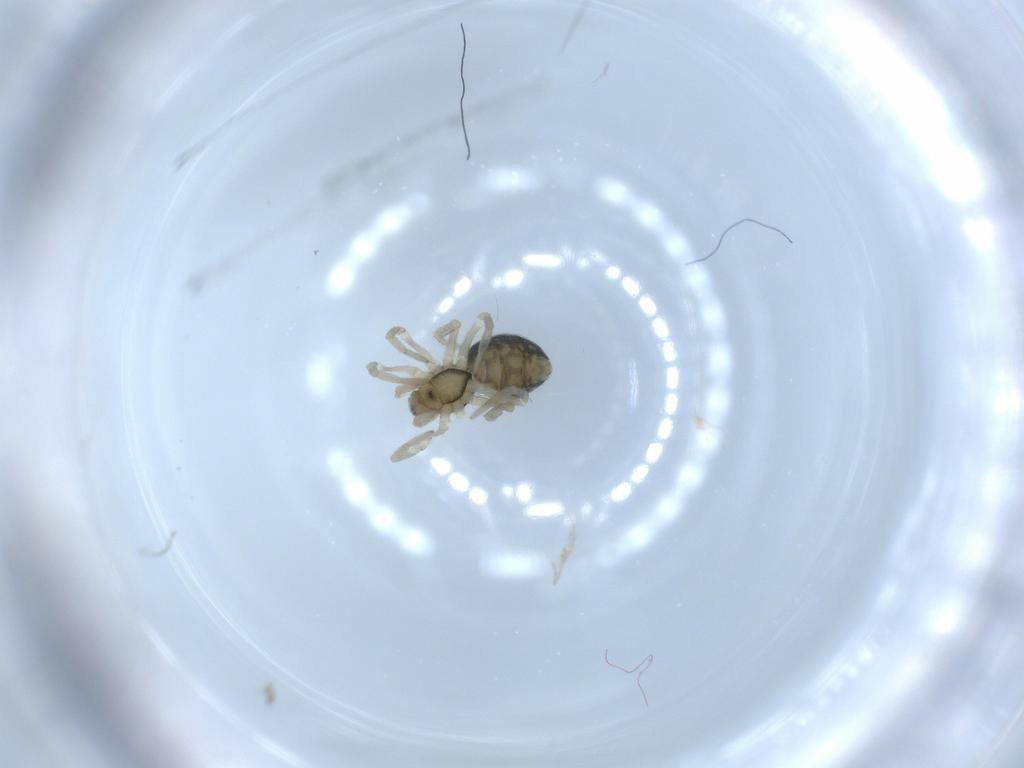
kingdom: Animalia
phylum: Arthropoda
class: Arachnida
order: Araneae
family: Dictynidae
